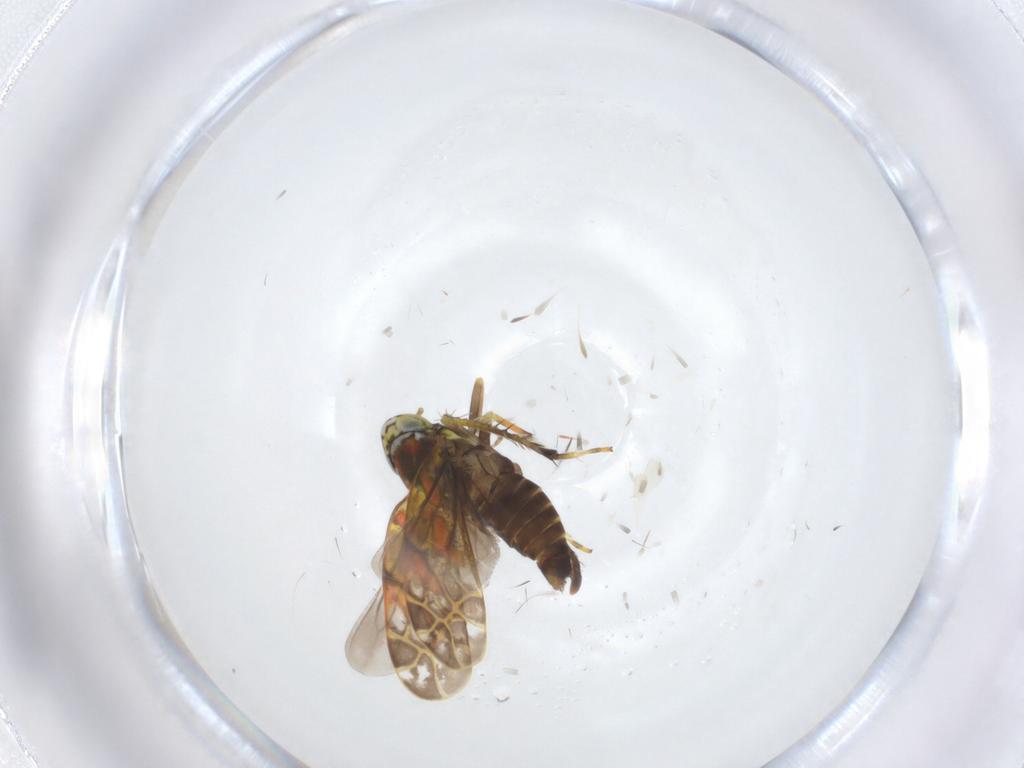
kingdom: Animalia
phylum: Arthropoda
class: Insecta
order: Hemiptera
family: Cicadellidae
